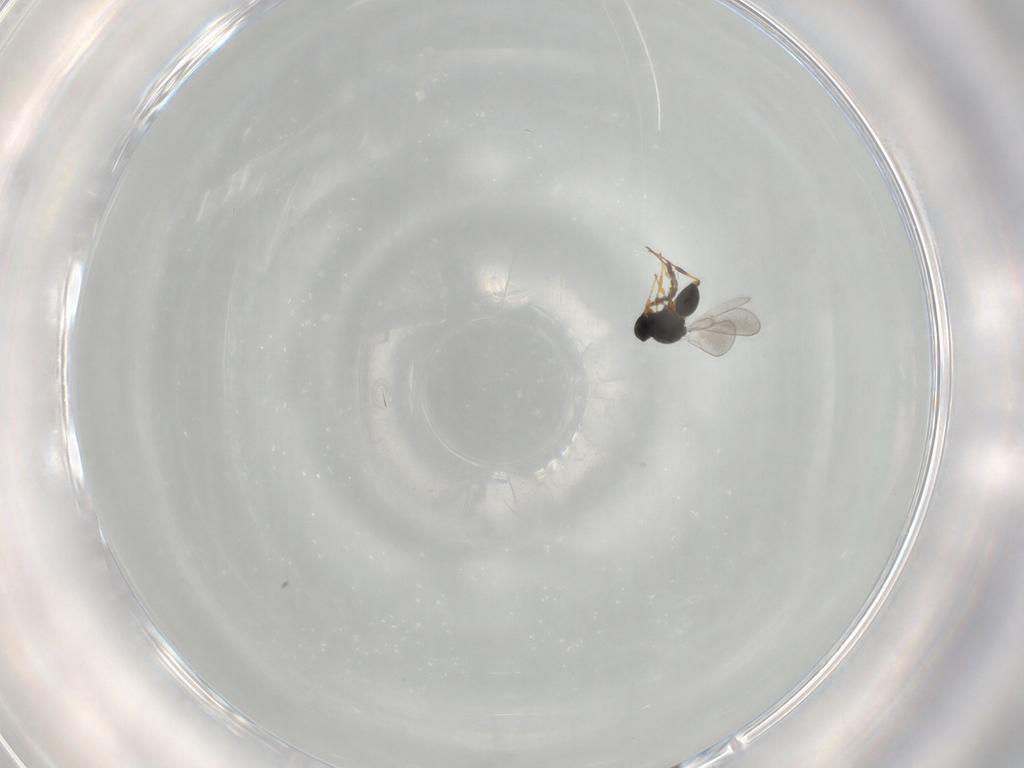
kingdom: Animalia
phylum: Arthropoda
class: Insecta
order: Hymenoptera
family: Platygastridae
